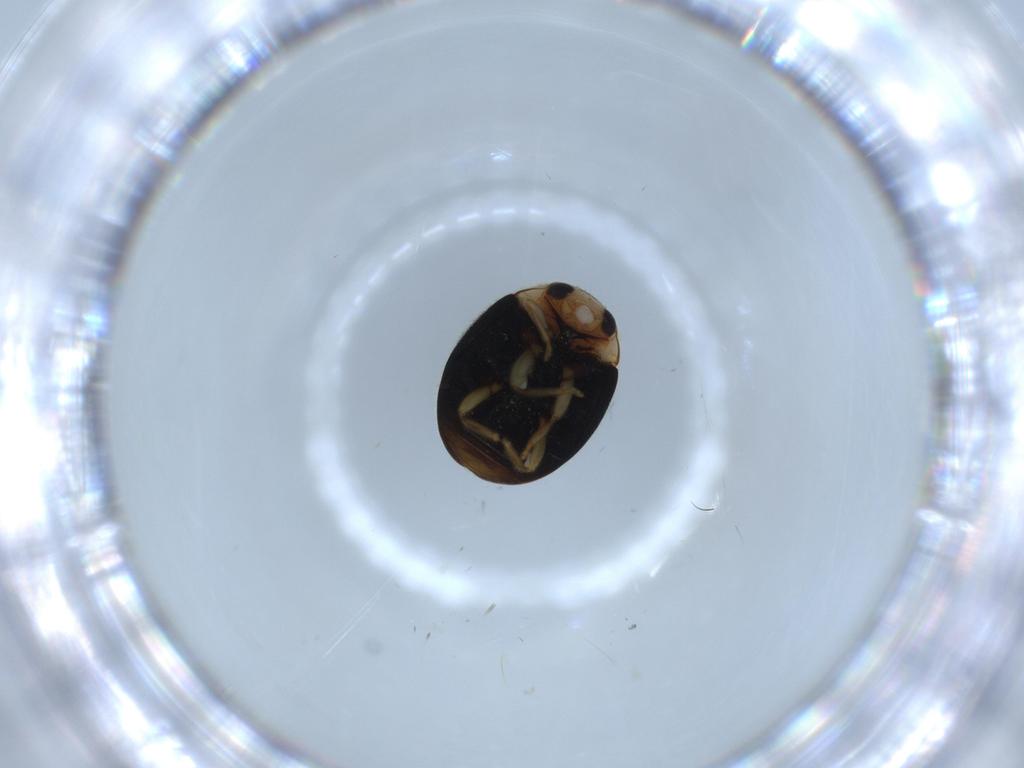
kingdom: Animalia
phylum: Arthropoda
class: Insecta
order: Coleoptera
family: Coccinellidae
